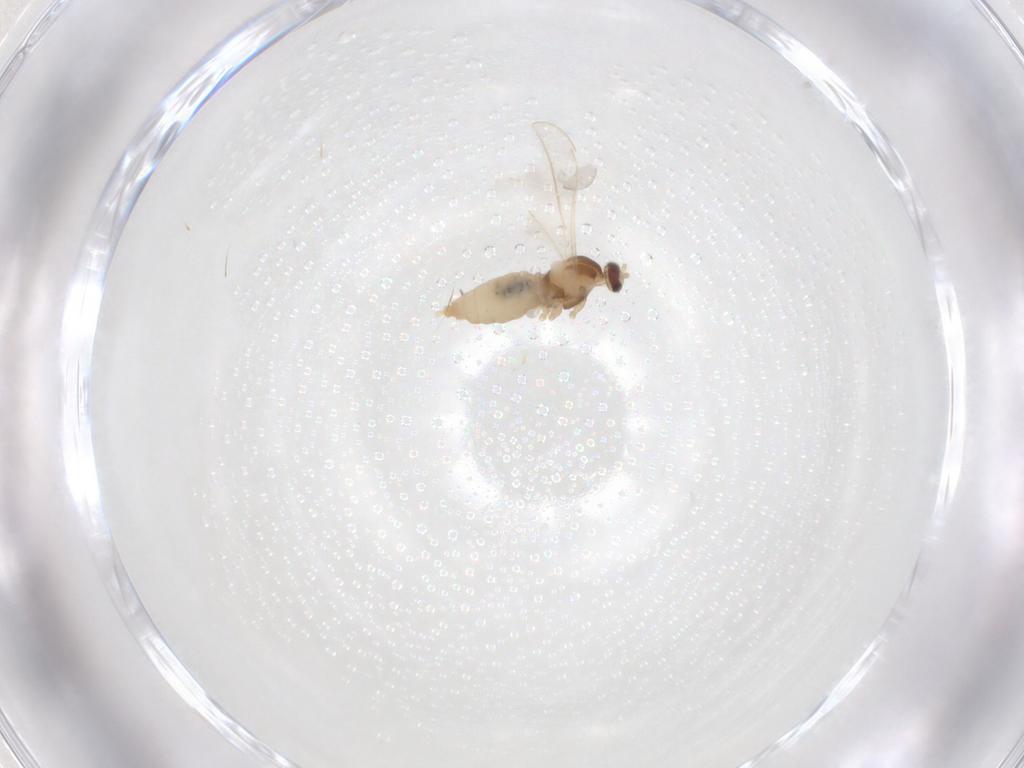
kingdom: Animalia
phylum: Arthropoda
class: Insecta
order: Diptera
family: Cecidomyiidae
